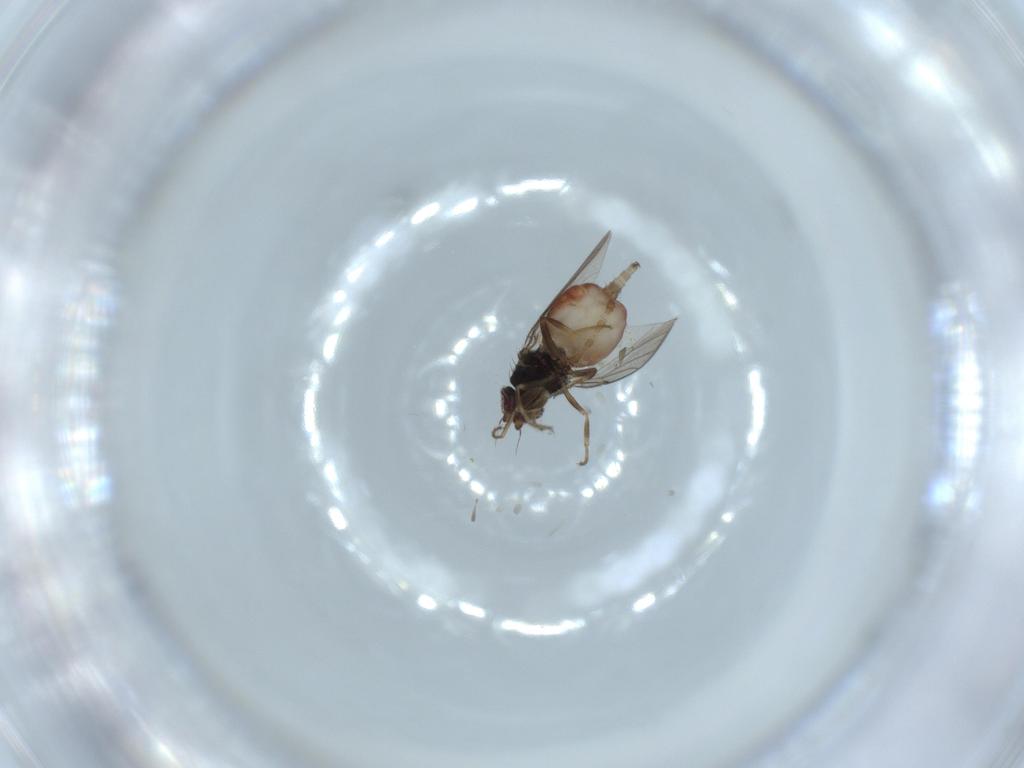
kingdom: Animalia
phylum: Arthropoda
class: Insecta
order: Diptera
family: Chloropidae
